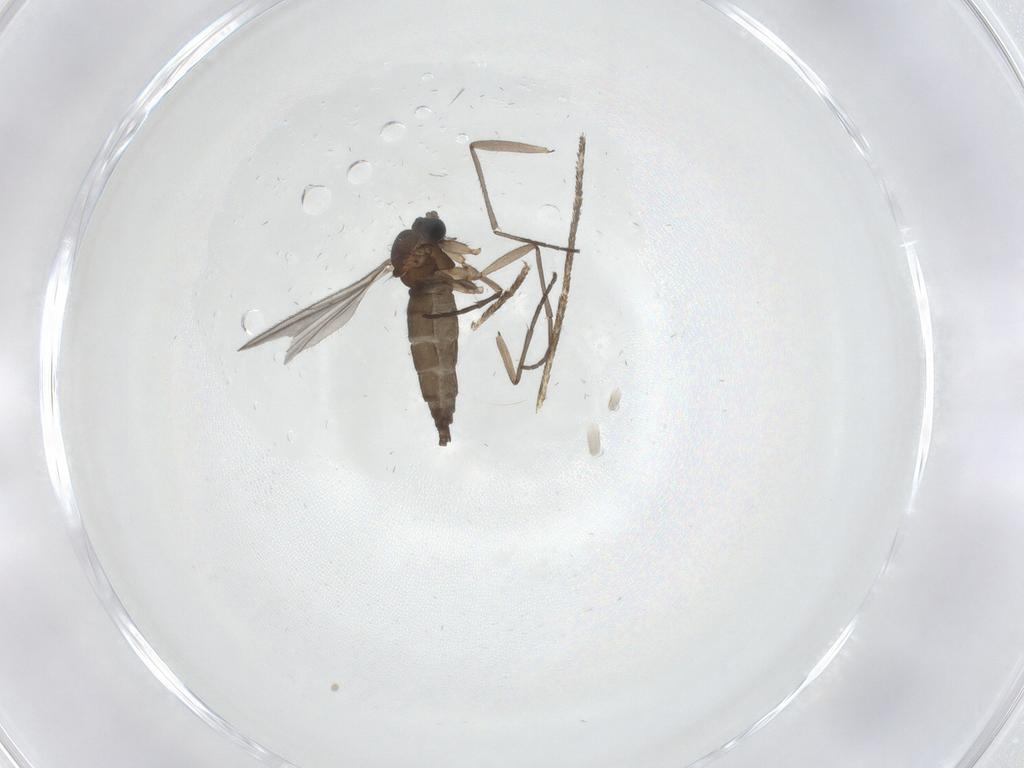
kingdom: Animalia
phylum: Arthropoda
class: Insecta
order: Diptera
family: Culicidae
